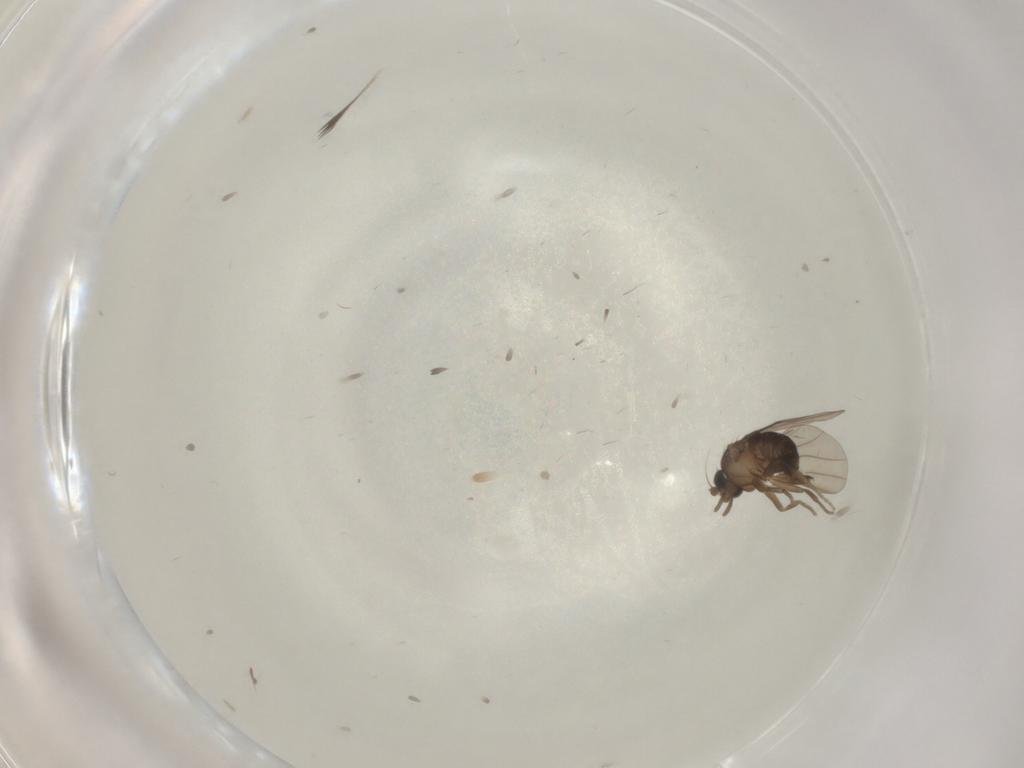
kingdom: Animalia
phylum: Arthropoda
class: Insecta
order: Diptera
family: Phoridae
